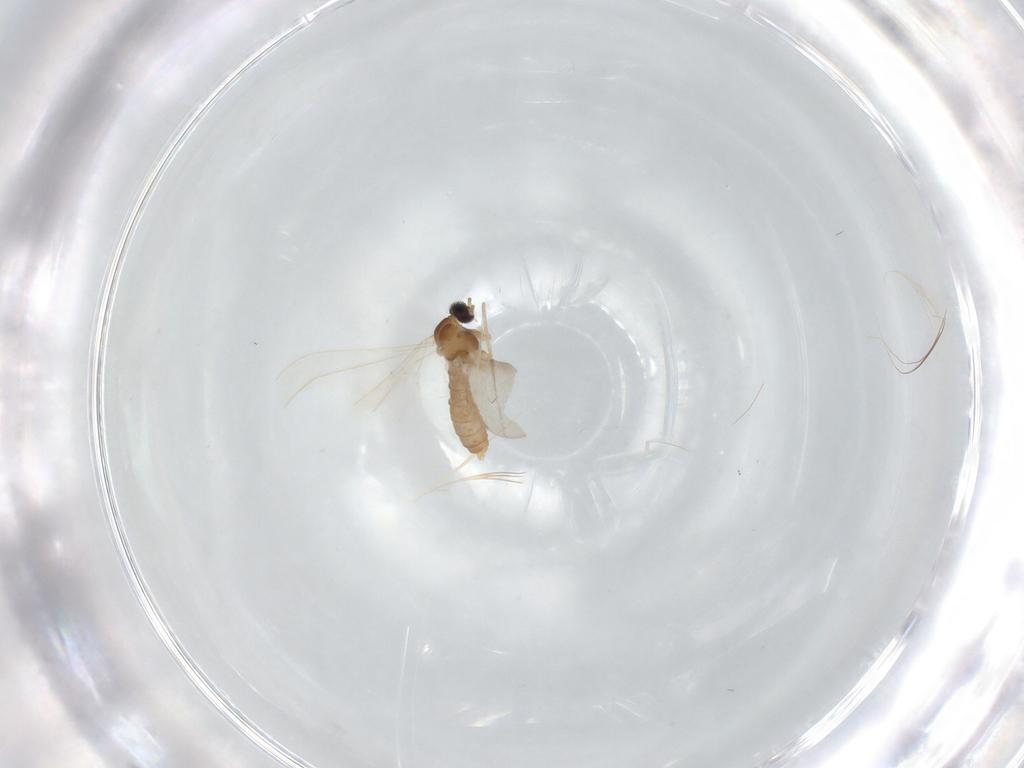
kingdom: Animalia
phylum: Arthropoda
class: Insecta
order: Diptera
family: Cecidomyiidae
